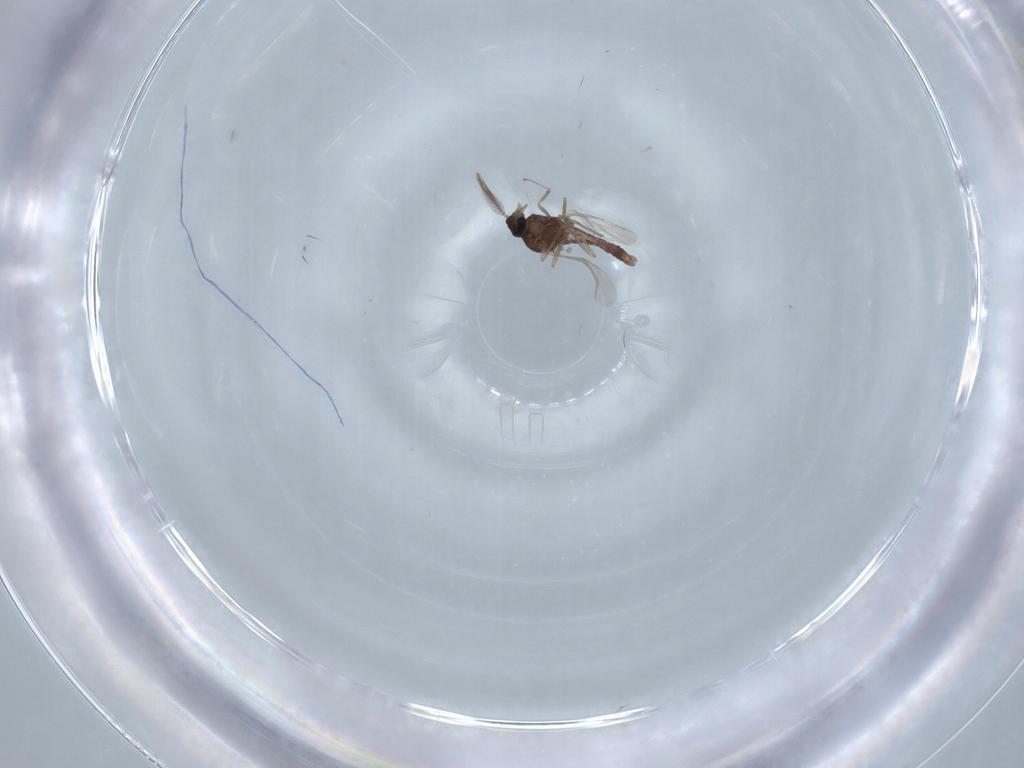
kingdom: Animalia
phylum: Arthropoda
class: Insecta
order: Diptera
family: Ceratopogonidae
